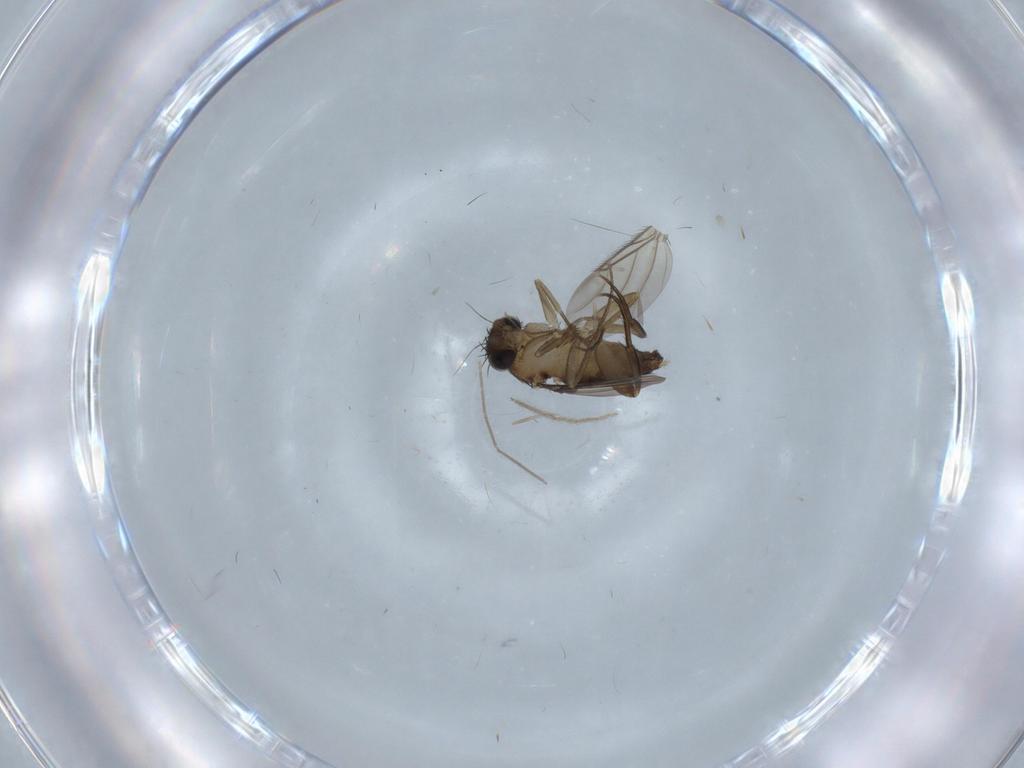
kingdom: Animalia
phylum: Arthropoda
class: Insecta
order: Diptera
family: Phoridae
